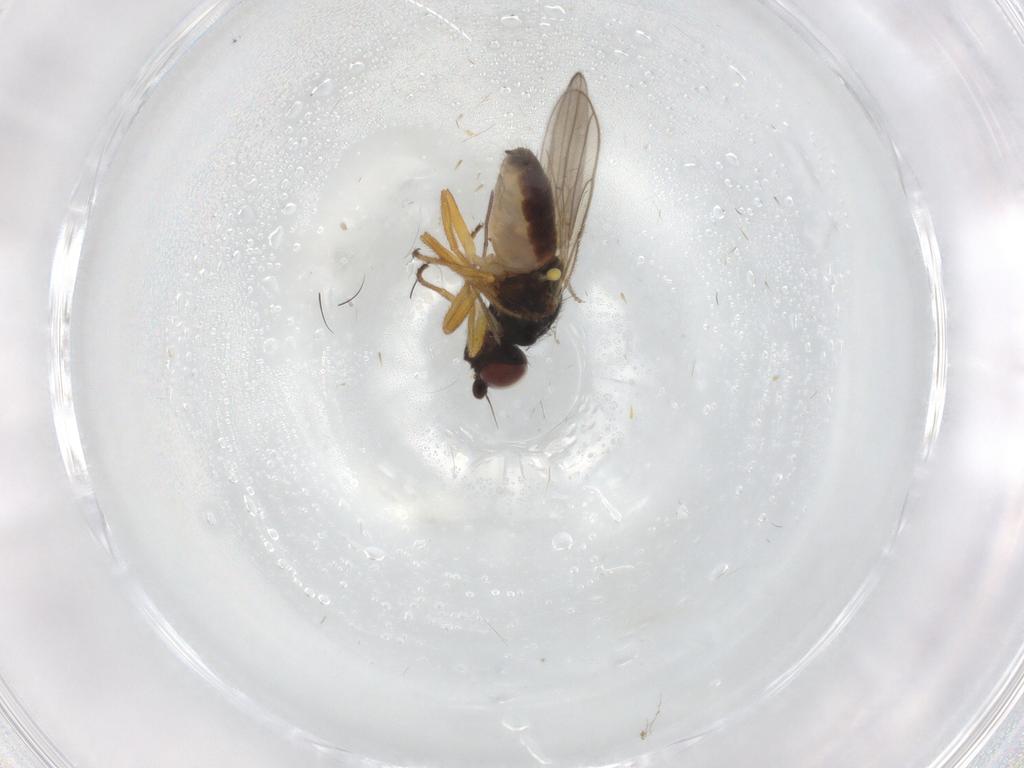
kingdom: Animalia
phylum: Arthropoda
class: Insecta
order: Diptera
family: Chloropidae
